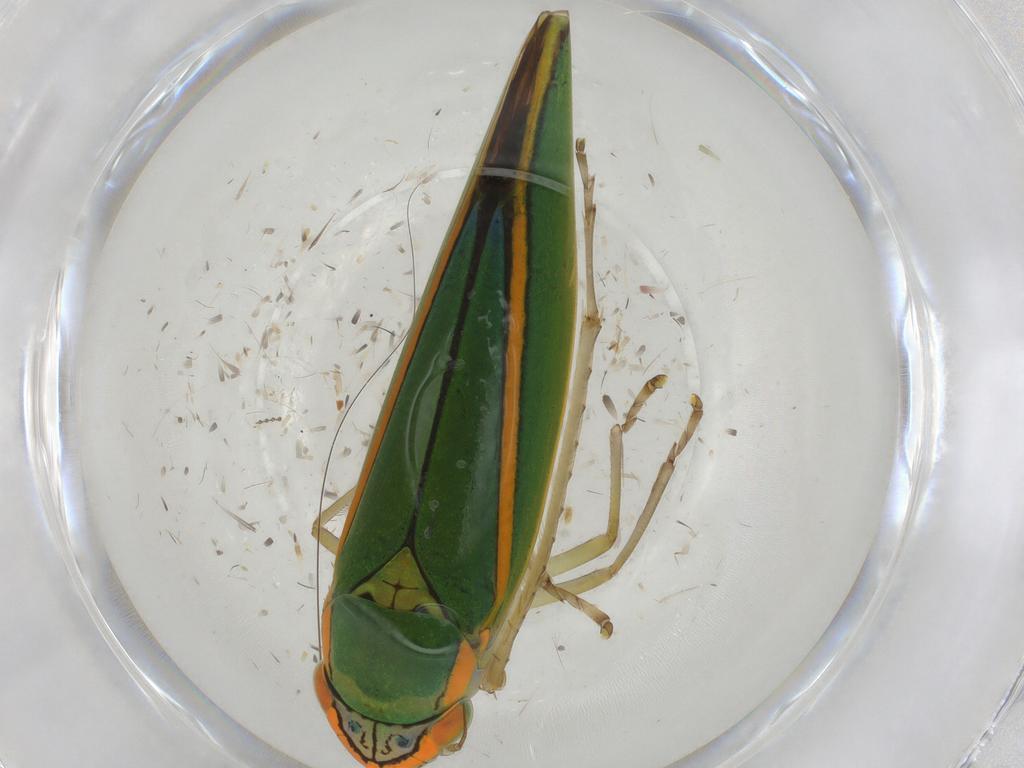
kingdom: Animalia
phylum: Arthropoda
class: Insecta
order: Hemiptera
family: Cicadellidae
